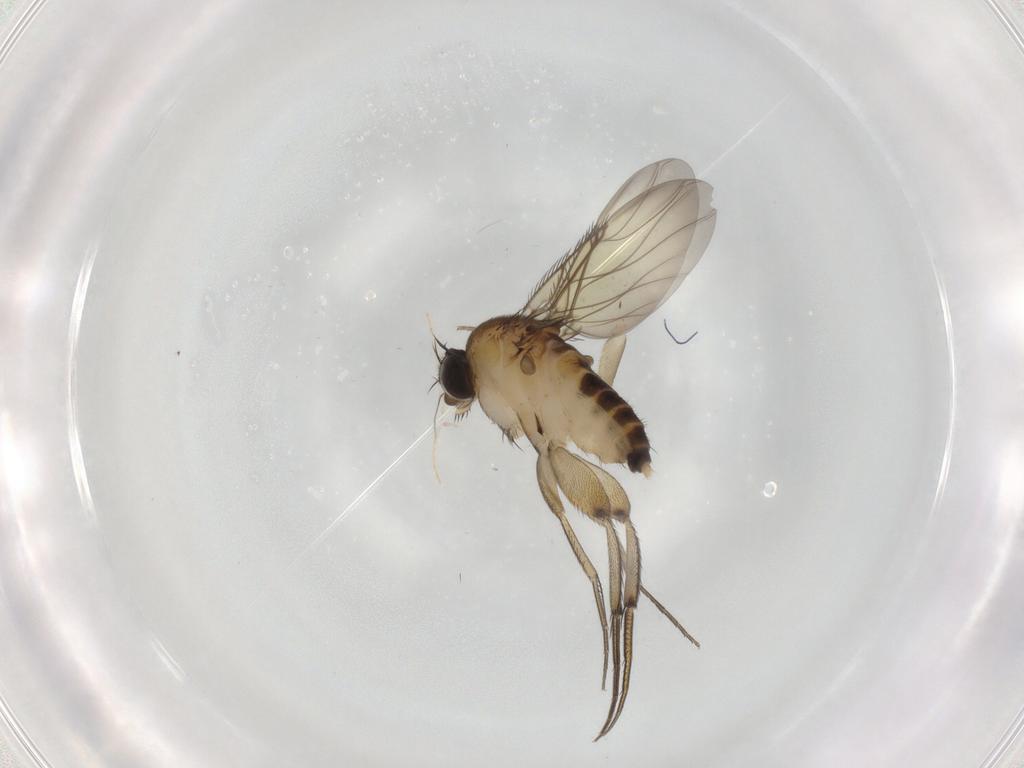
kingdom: Animalia
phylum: Arthropoda
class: Insecta
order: Diptera
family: Phoridae
